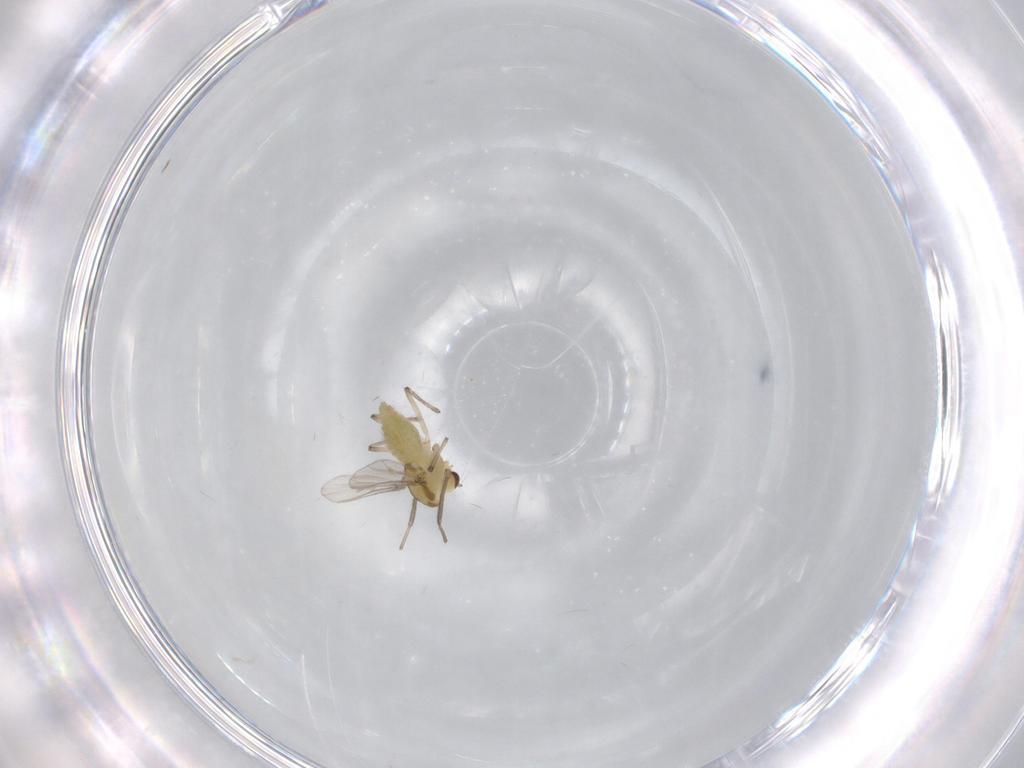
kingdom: Animalia
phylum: Arthropoda
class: Insecta
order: Diptera
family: Chironomidae
